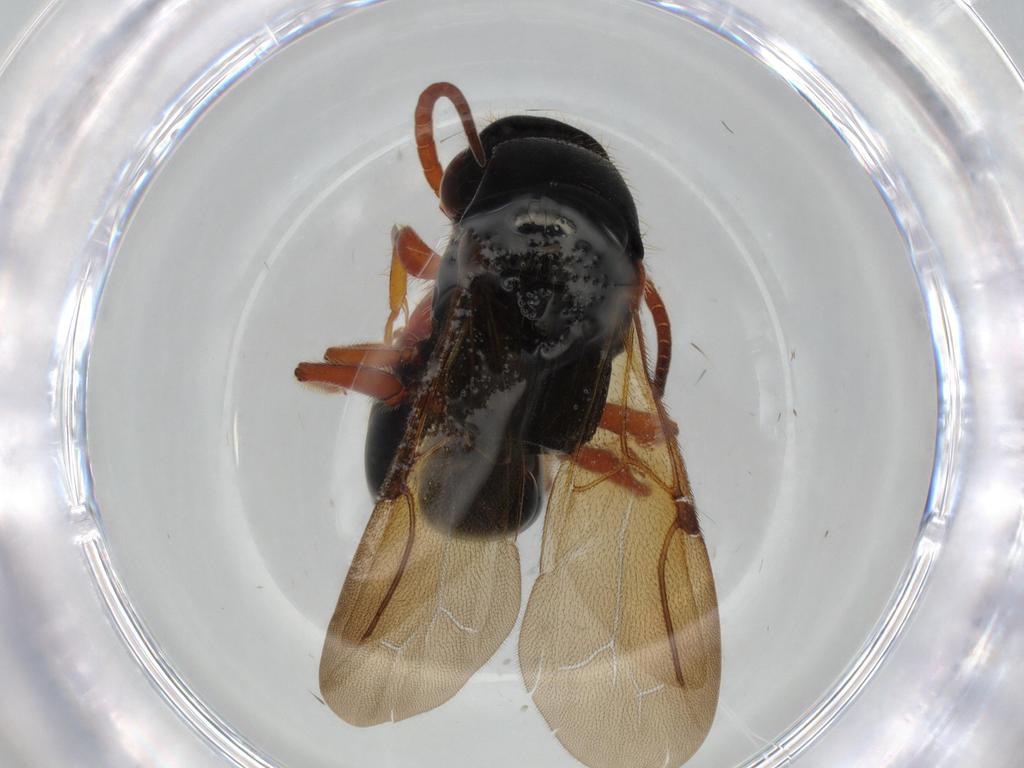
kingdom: Animalia
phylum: Arthropoda
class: Insecta
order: Hymenoptera
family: Bethylidae
